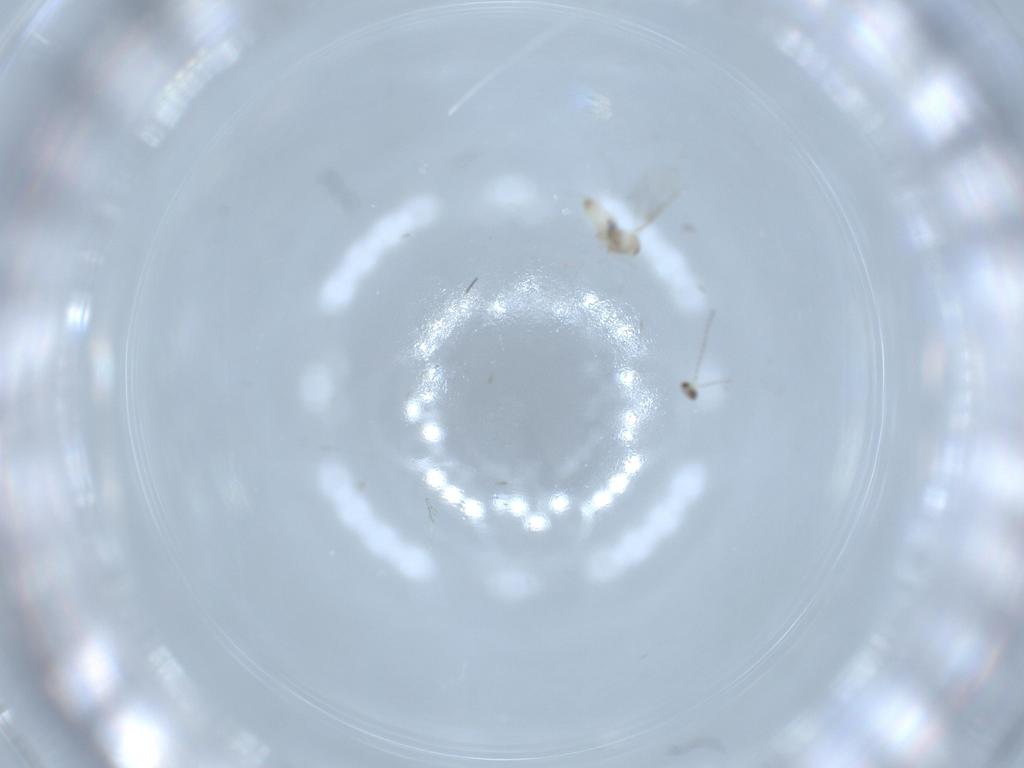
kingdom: Animalia
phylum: Arthropoda
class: Insecta
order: Diptera
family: Cecidomyiidae
